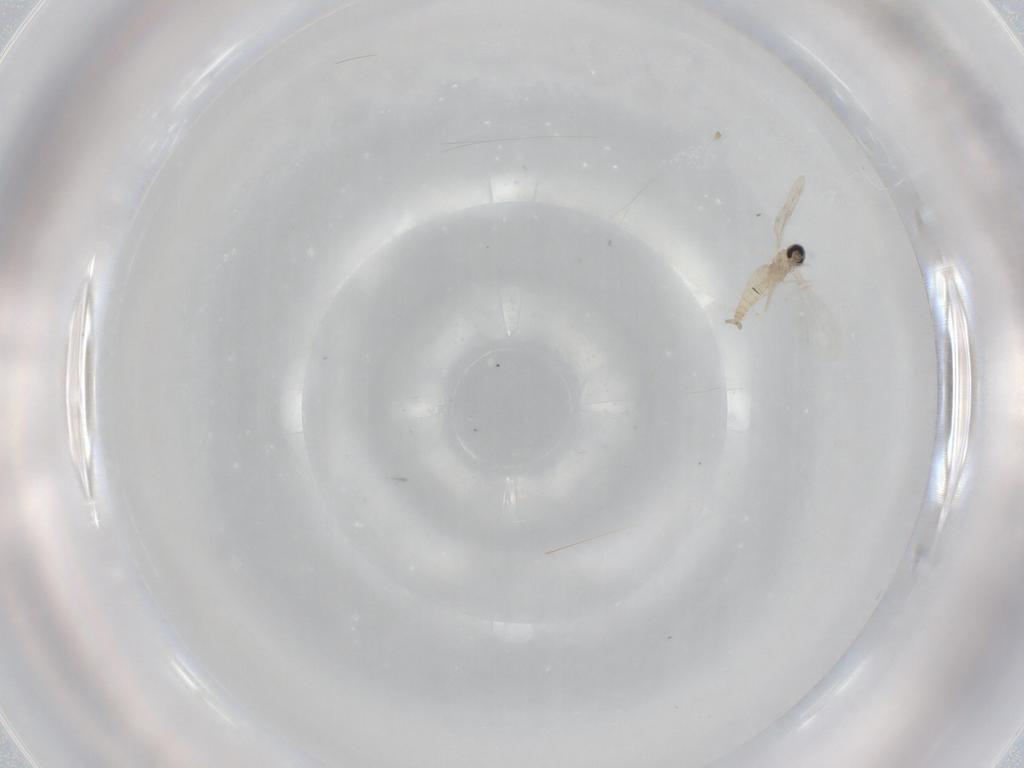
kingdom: Animalia
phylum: Arthropoda
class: Insecta
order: Diptera
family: Sciaridae
